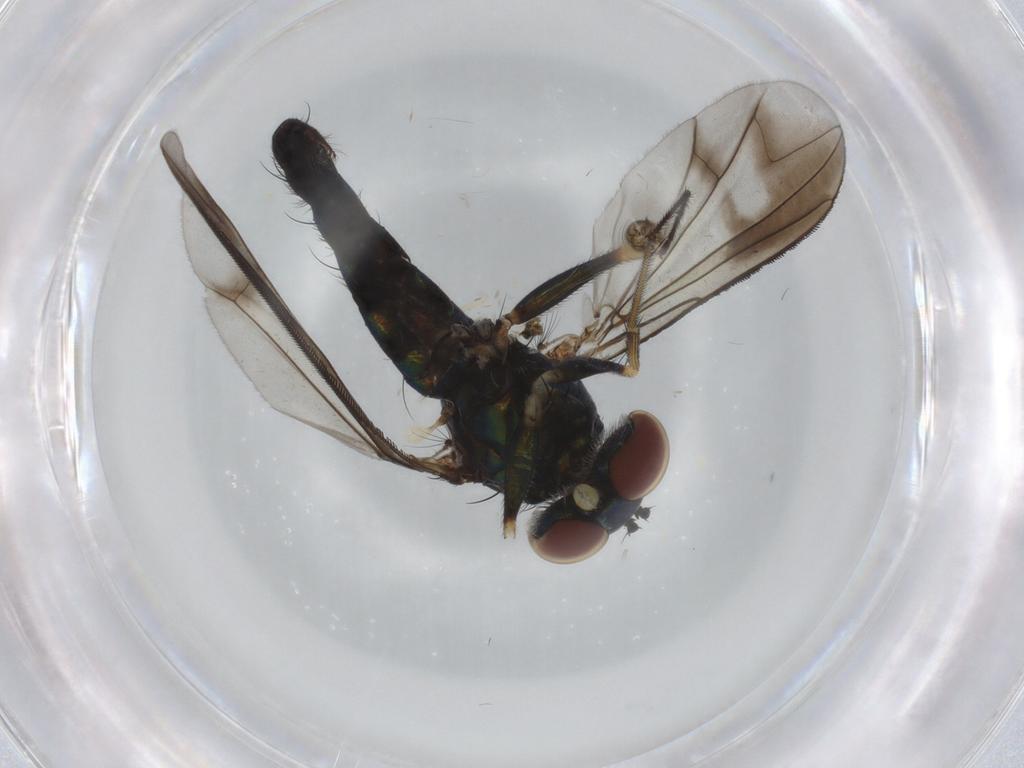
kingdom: Animalia
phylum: Arthropoda
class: Insecta
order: Diptera
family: Dolichopodidae
